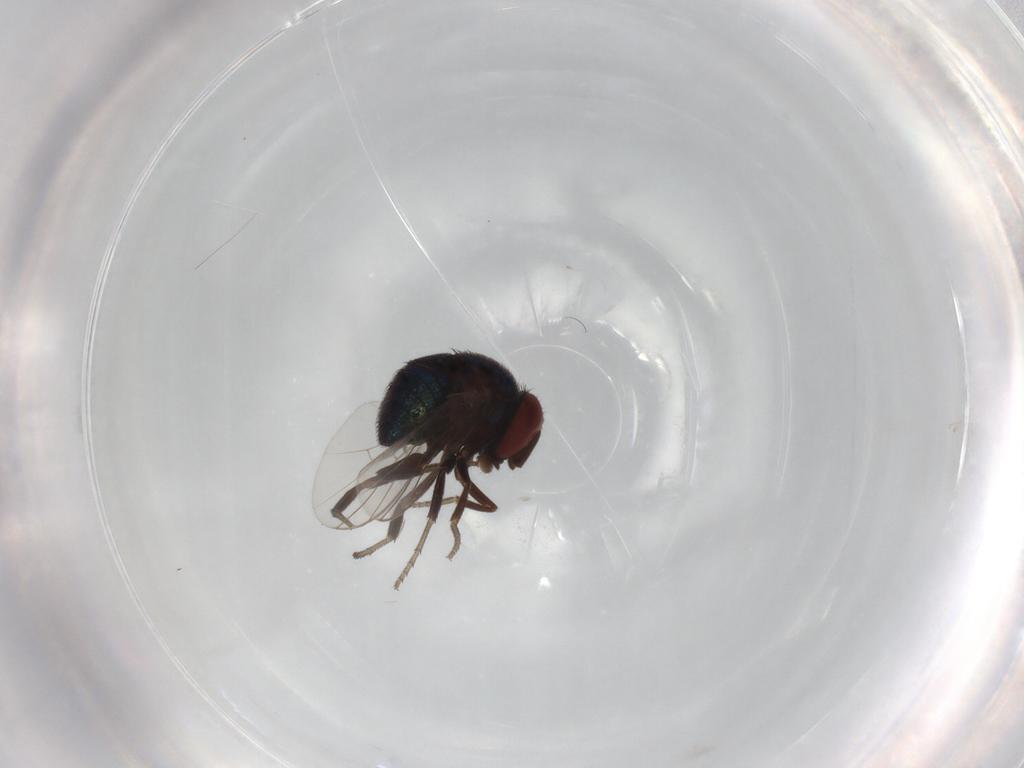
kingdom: Animalia
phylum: Arthropoda
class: Insecta
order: Diptera
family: Cryptochetidae
